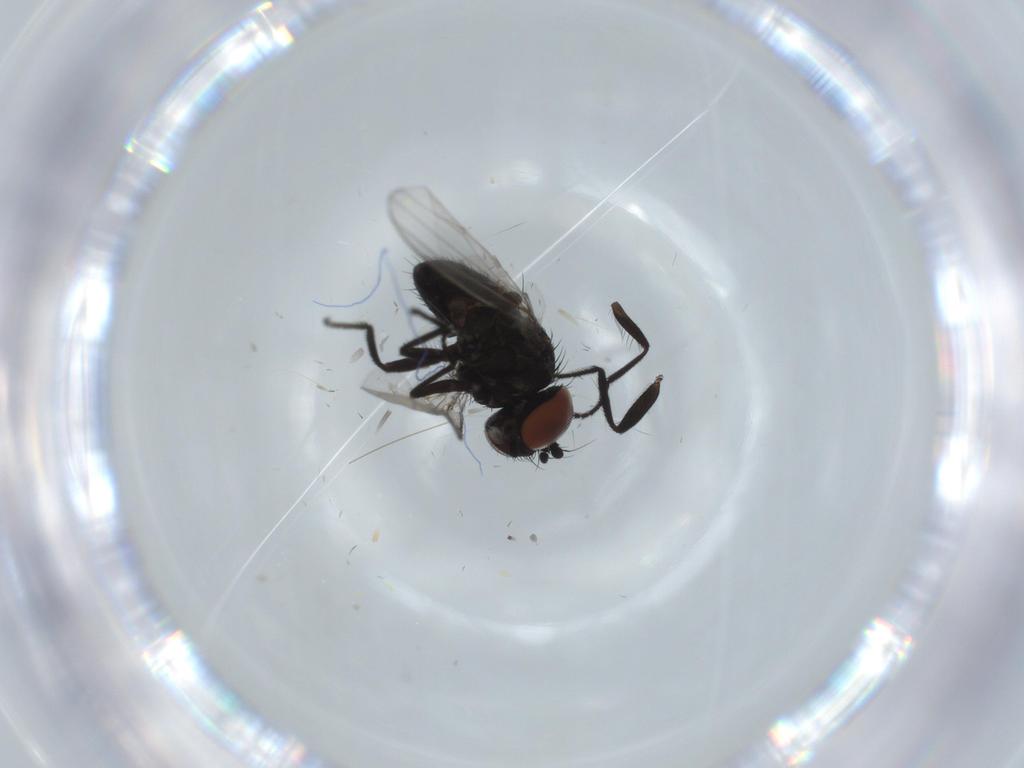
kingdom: Animalia
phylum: Arthropoda
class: Insecta
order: Diptera
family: Milichiidae
